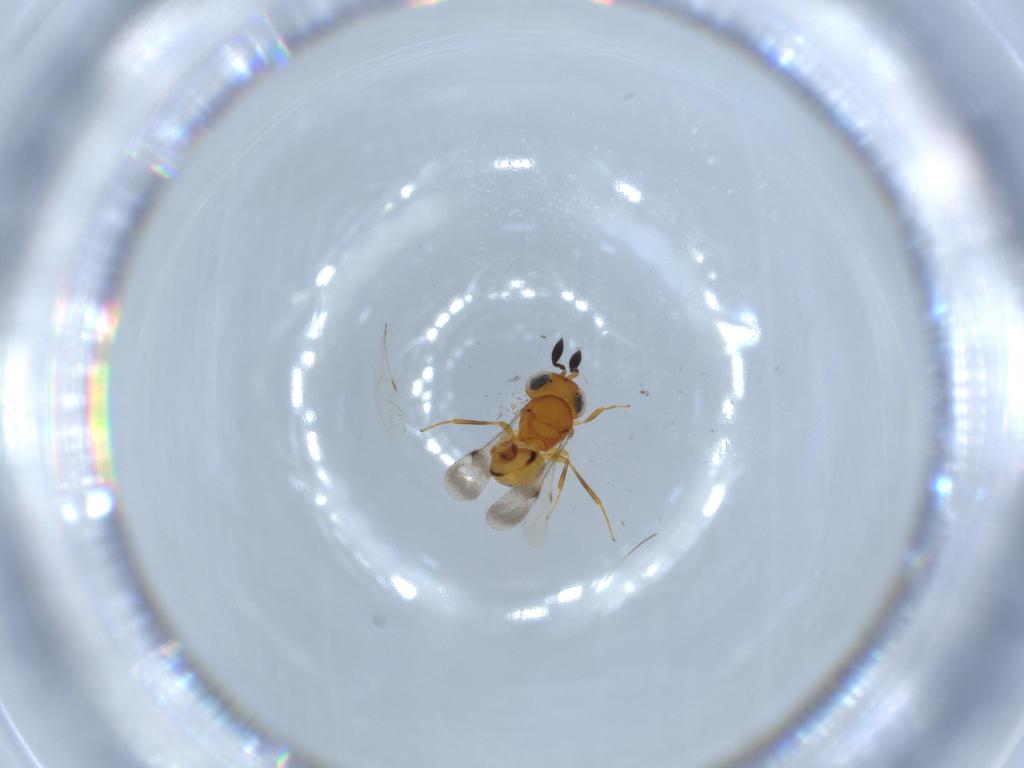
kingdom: Animalia
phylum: Arthropoda
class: Insecta
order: Hymenoptera
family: Scelionidae
